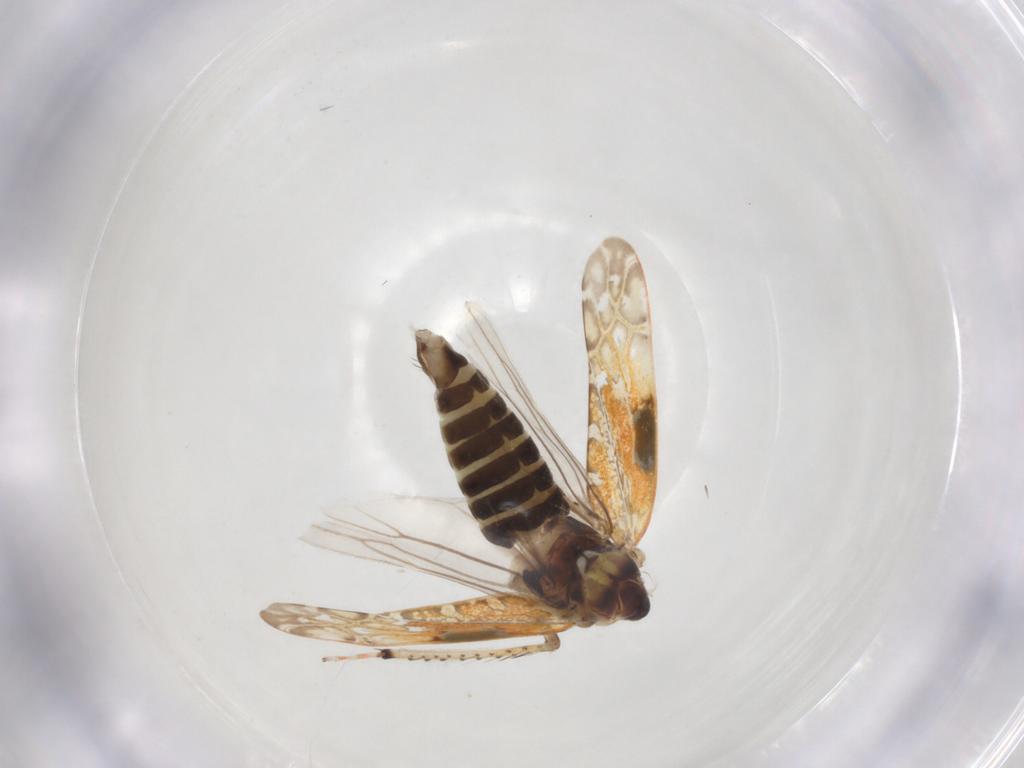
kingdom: Animalia
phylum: Arthropoda
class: Insecta
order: Hemiptera
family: Cicadellidae
